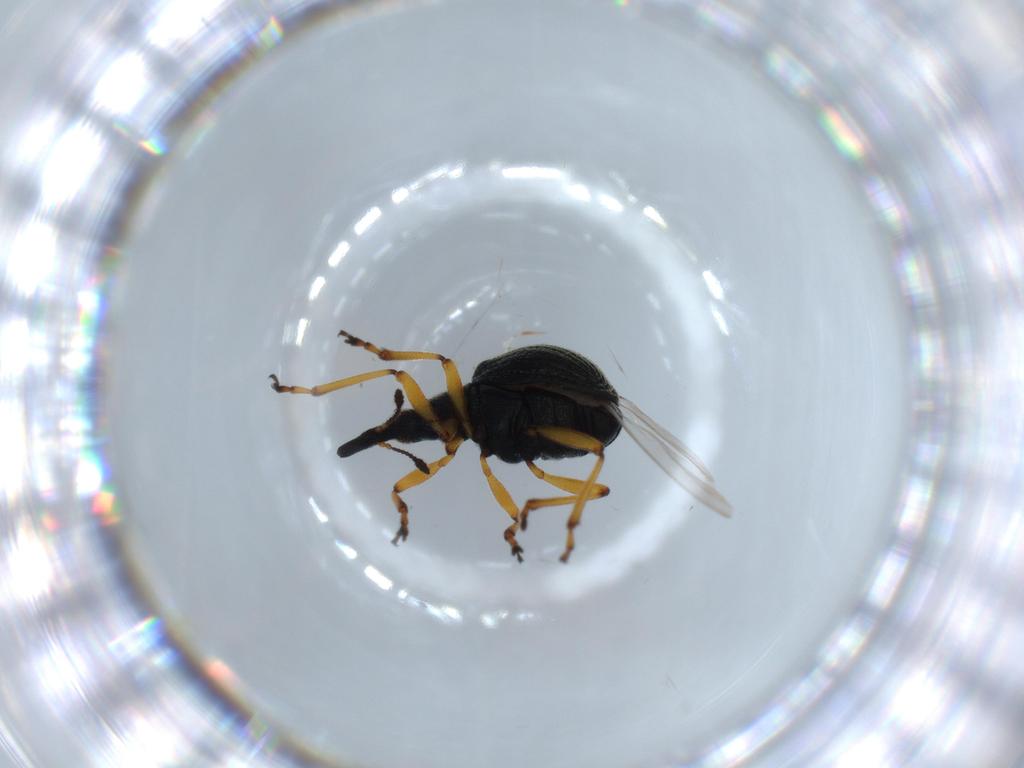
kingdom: Animalia
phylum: Arthropoda
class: Insecta
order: Coleoptera
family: Brentidae
